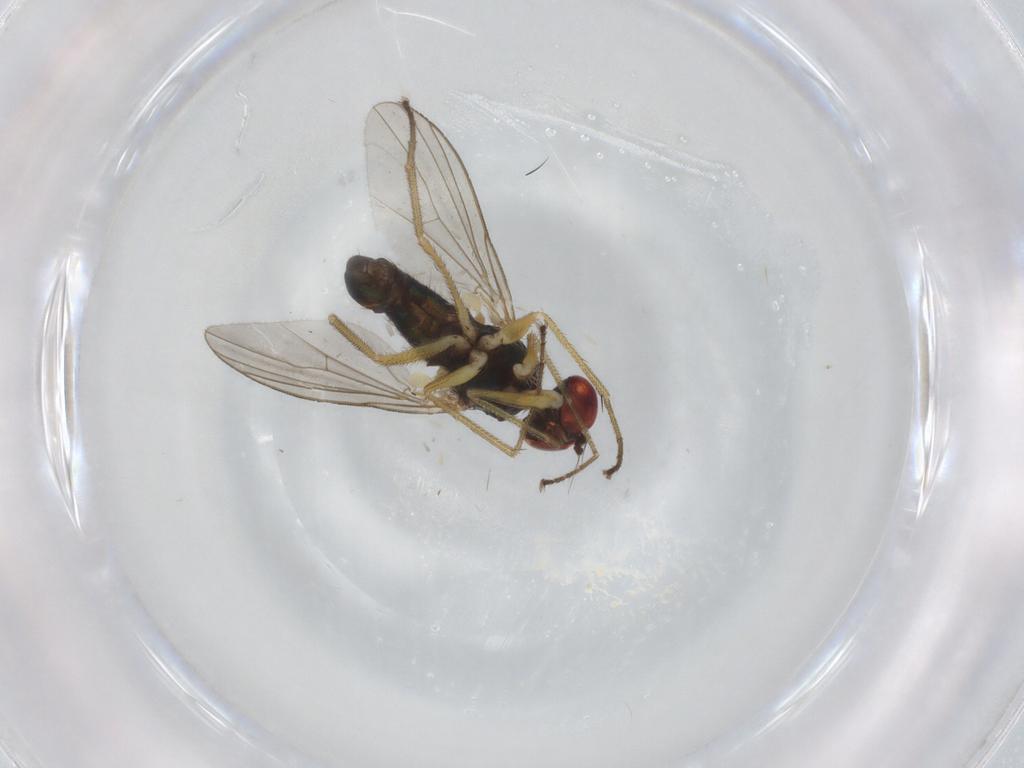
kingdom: Animalia
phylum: Arthropoda
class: Insecta
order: Diptera
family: Dolichopodidae
